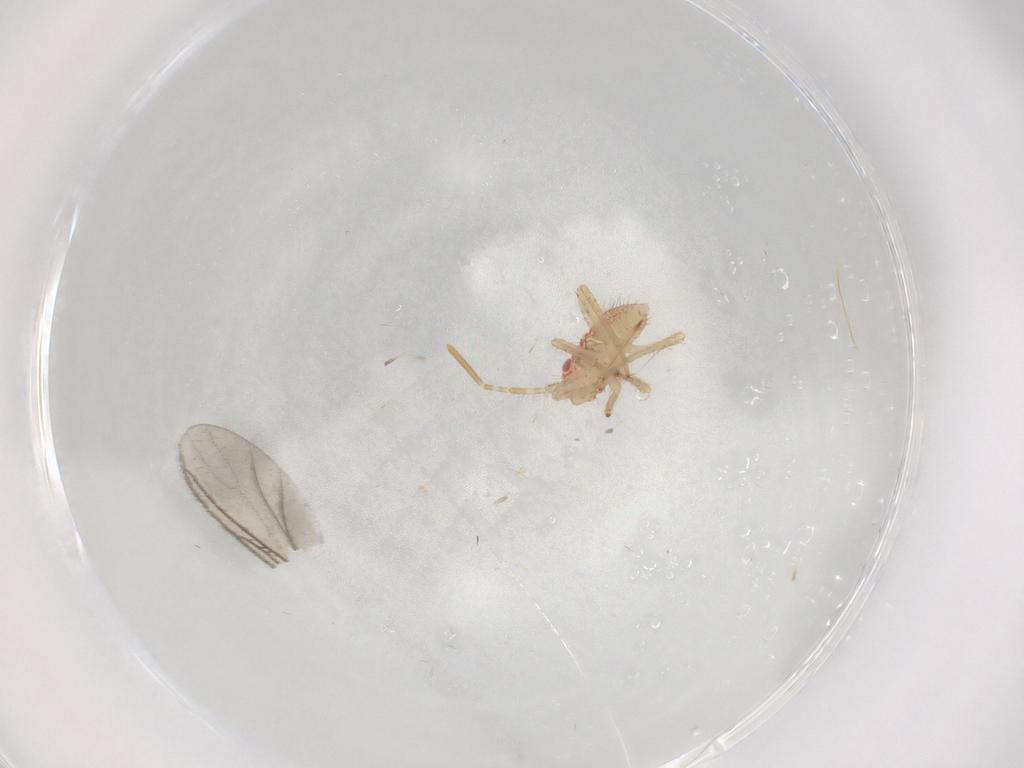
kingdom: Animalia
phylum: Arthropoda
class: Insecta
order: Hemiptera
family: Miridae
